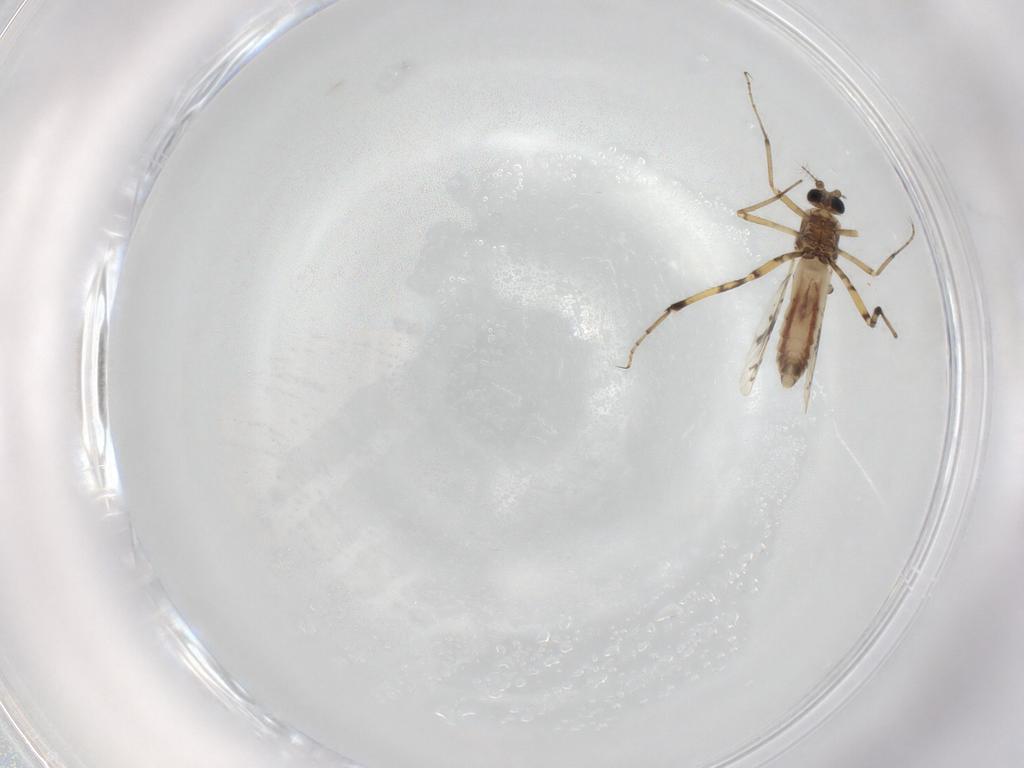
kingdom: Animalia
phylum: Arthropoda
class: Insecta
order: Diptera
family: Ceratopogonidae
